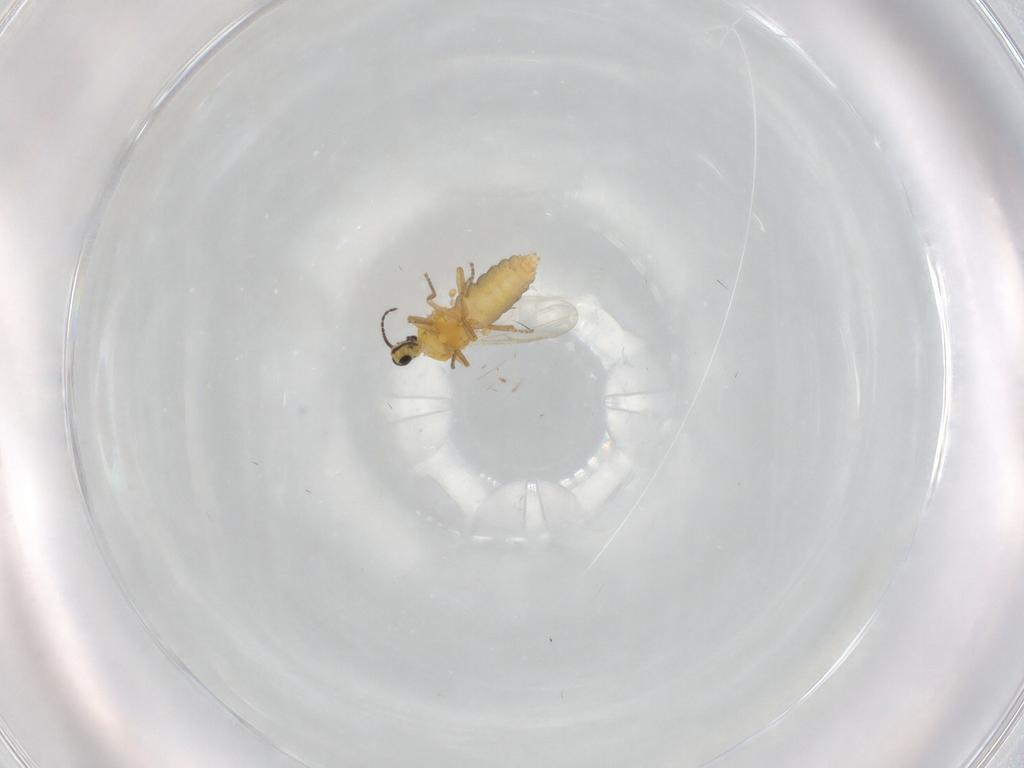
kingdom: Animalia
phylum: Arthropoda
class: Insecta
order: Diptera
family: Ceratopogonidae
